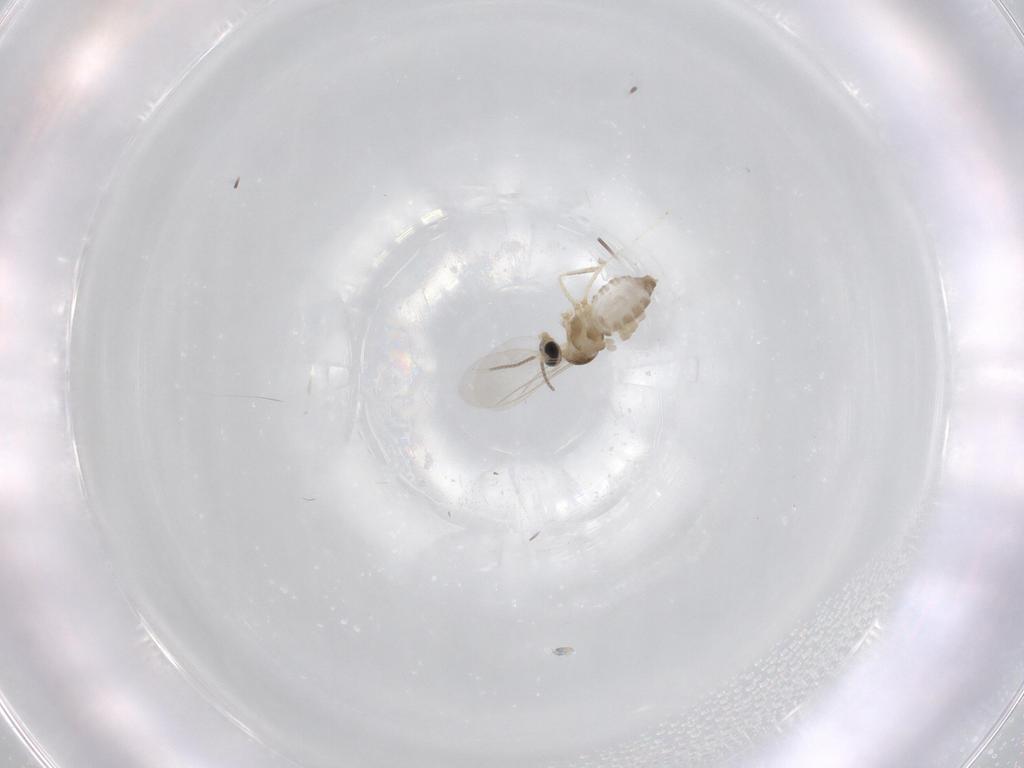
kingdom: Animalia
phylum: Arthropoda
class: Insecta
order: Diptera
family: Cecidomyiidae
